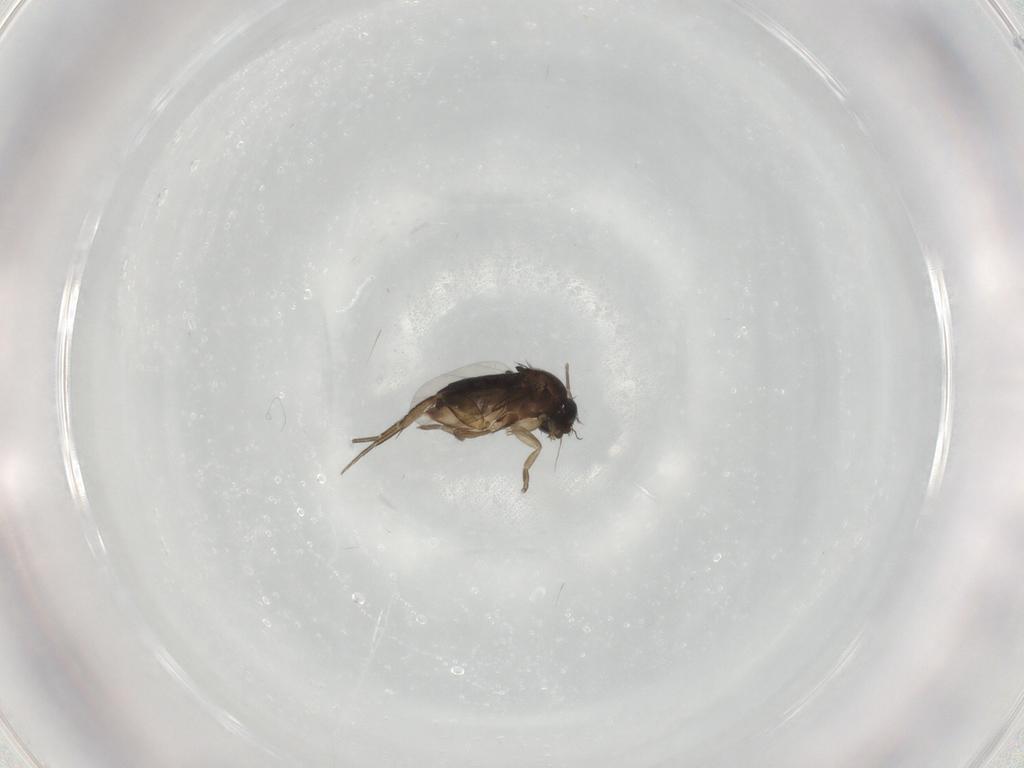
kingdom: Animalia
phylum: Arthropoda
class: Insecta
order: Diptera
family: Phoridae
